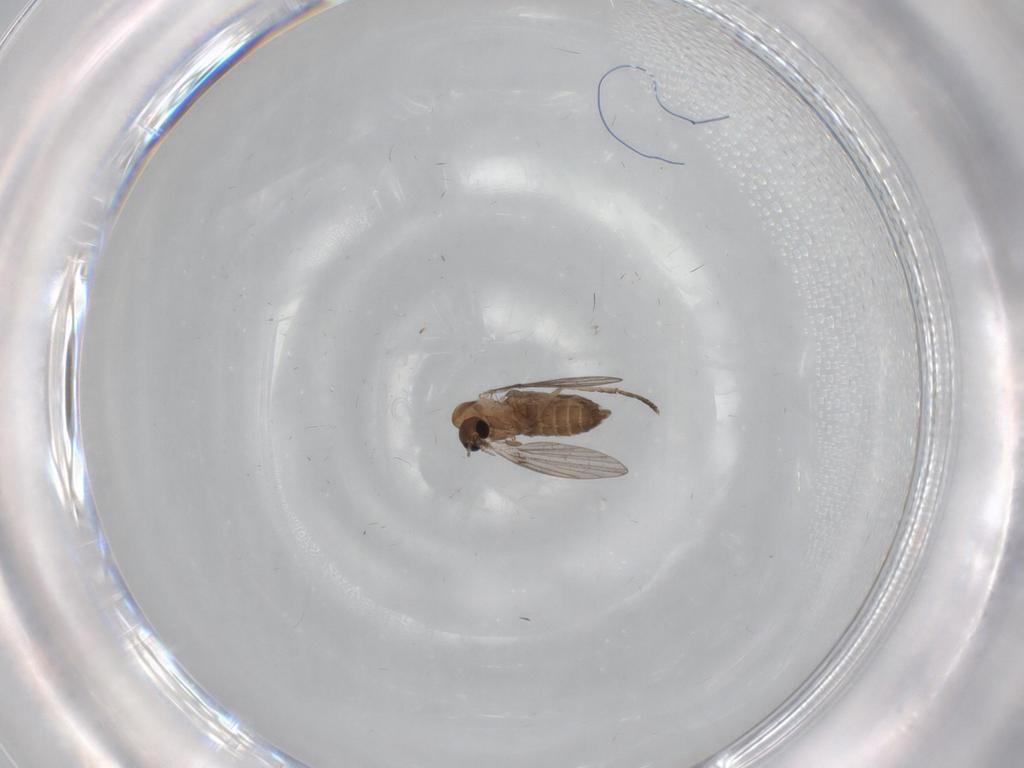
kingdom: Animalia
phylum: Arthropoda
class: Insecta
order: Diptera
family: Psychodidae
